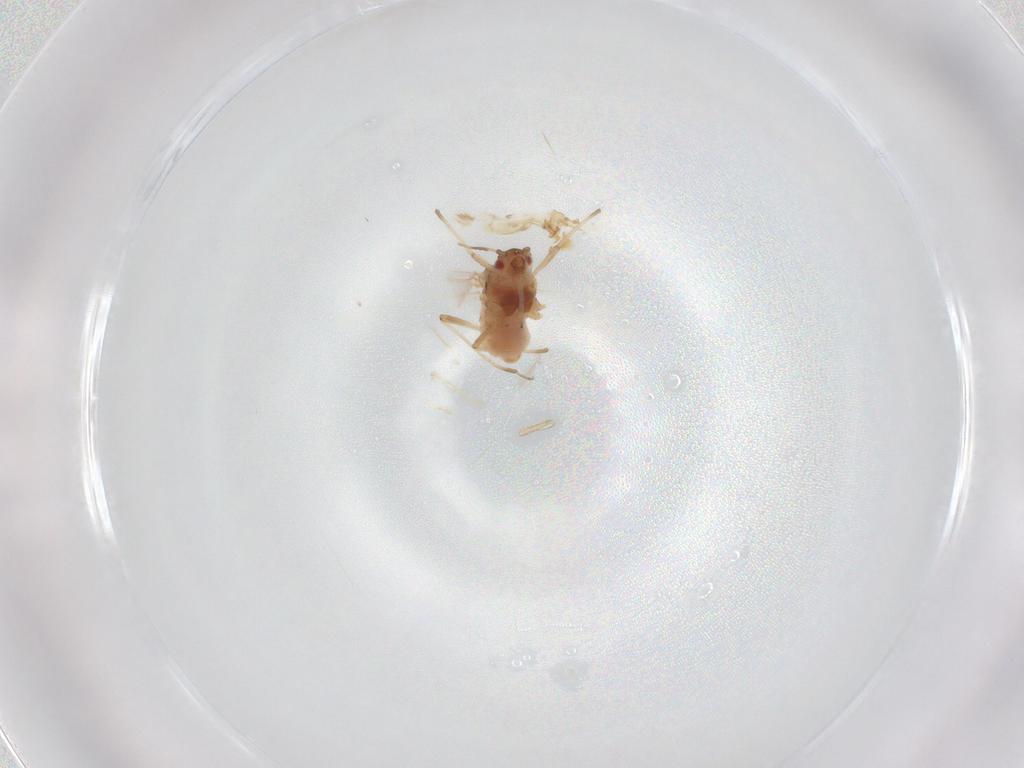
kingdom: Animalia
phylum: Arthropoda
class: Insecta
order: Hemiptera
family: Aphididae
